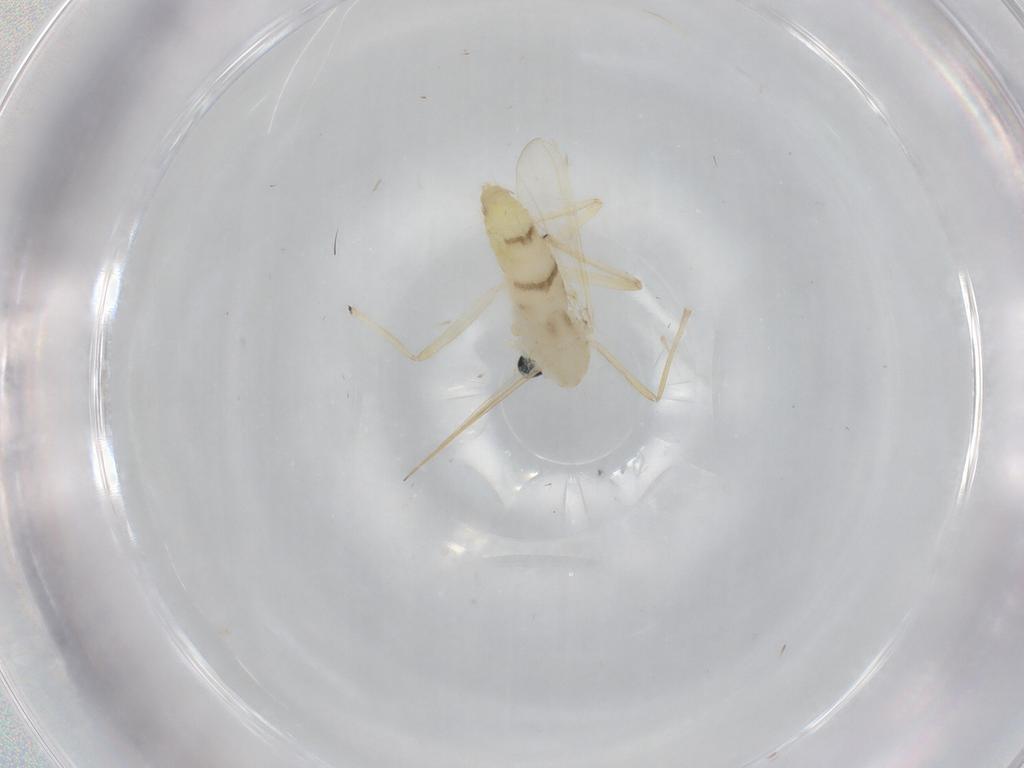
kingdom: Animalia
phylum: Arthropoda
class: Insecta
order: Diptera
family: Chironomidae
